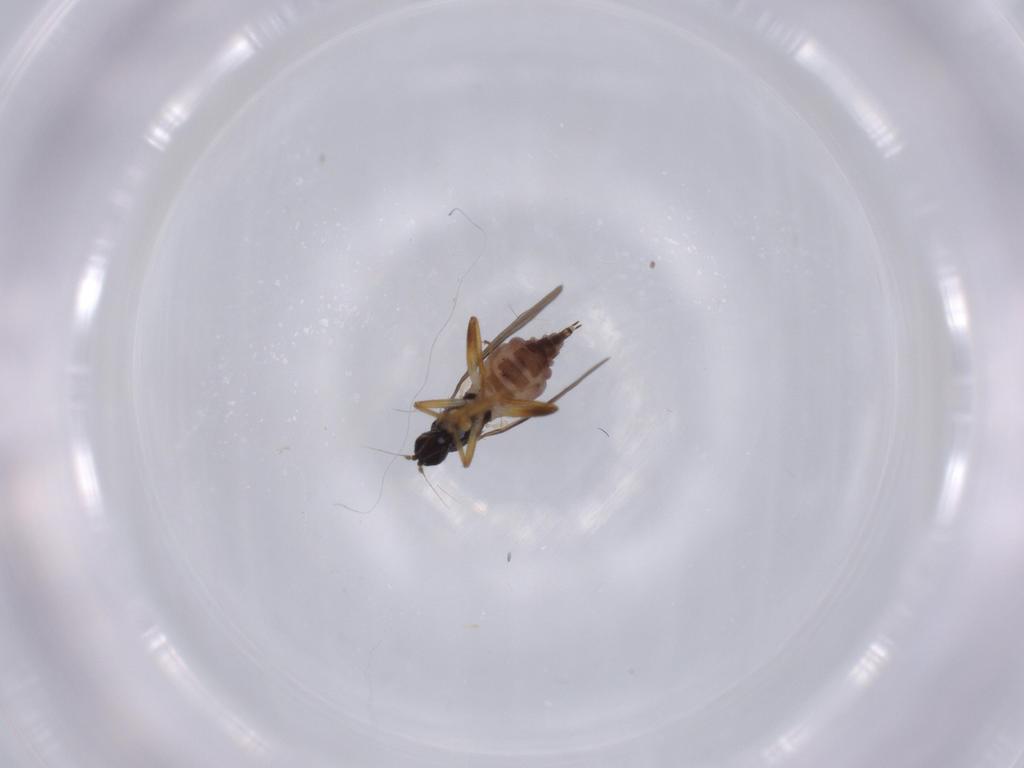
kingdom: Animalia
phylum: Arthropoda
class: Insecta
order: Diptera
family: Hybotidae
